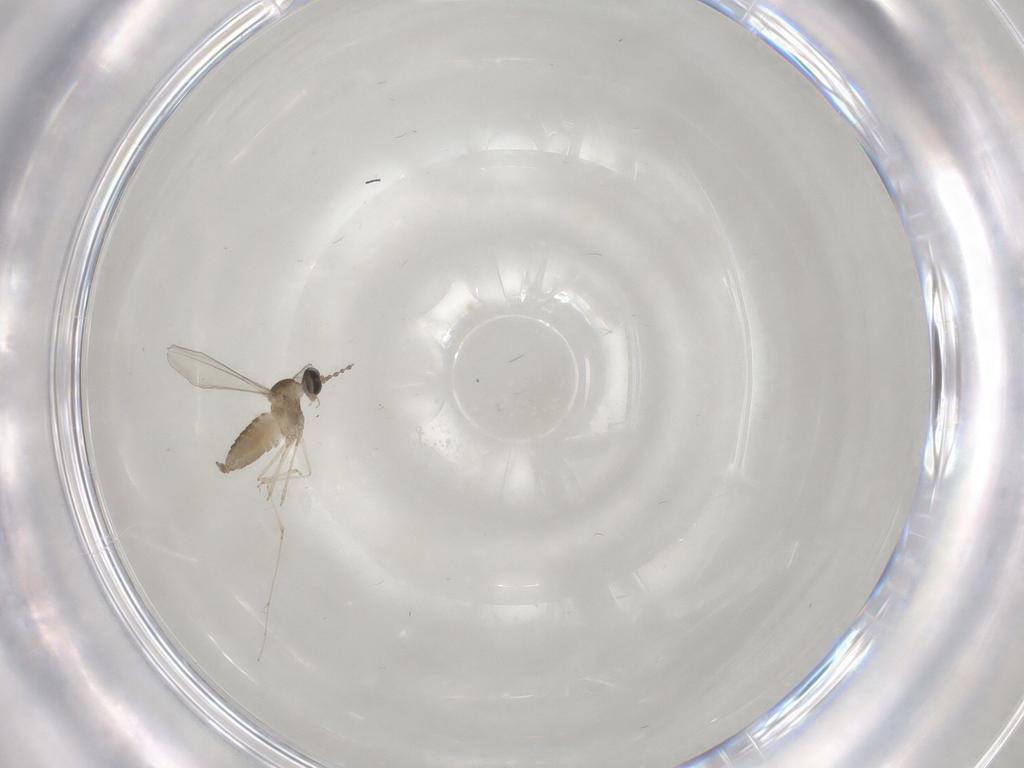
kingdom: Animalia
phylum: Arthropoda
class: Insecta
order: Diptera
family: Cecidomyiidae
